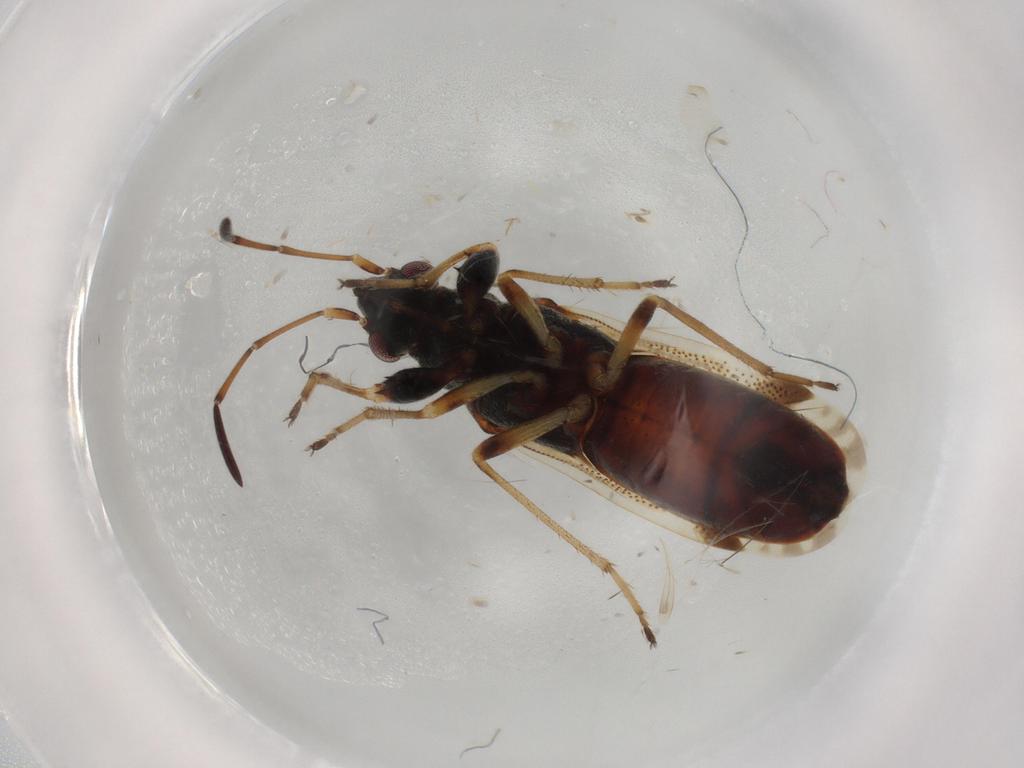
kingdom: Animalia
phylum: Arthropoda
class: Insecta
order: Hemiptera
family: Rhyparochromidae
